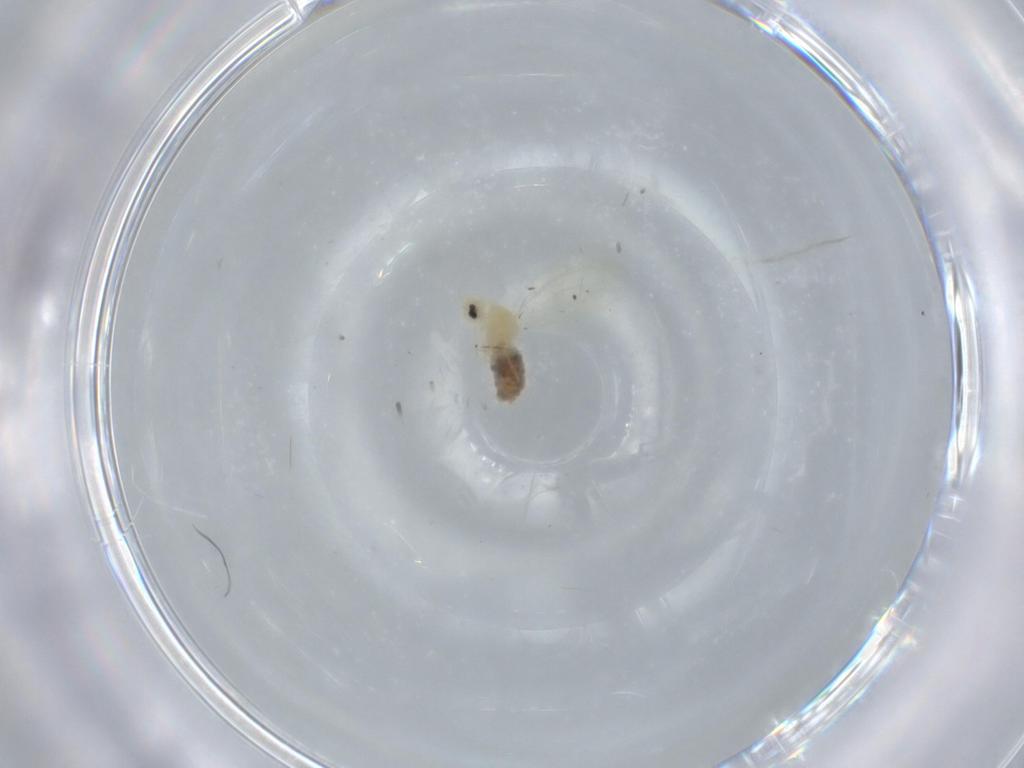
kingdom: Animalia
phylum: Arthropoda
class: Insecta
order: Hemiptera
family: Aleyrodidae
